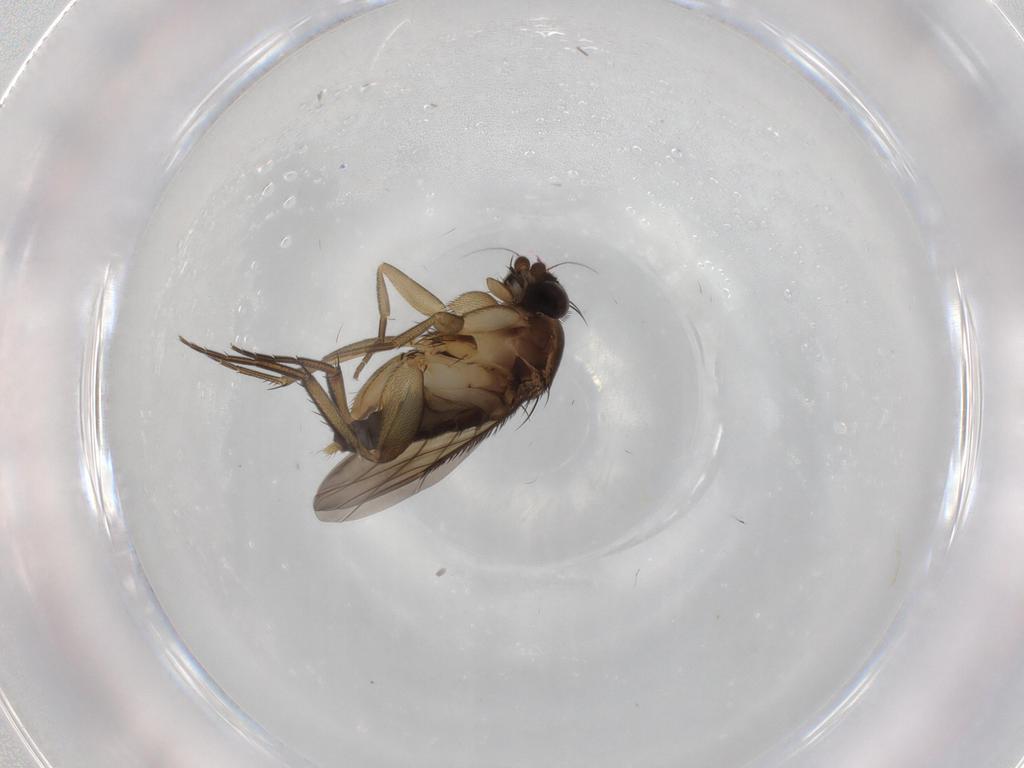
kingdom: Animalia
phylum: Arthropoda
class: Insecta
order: Diptera
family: Phoridae
